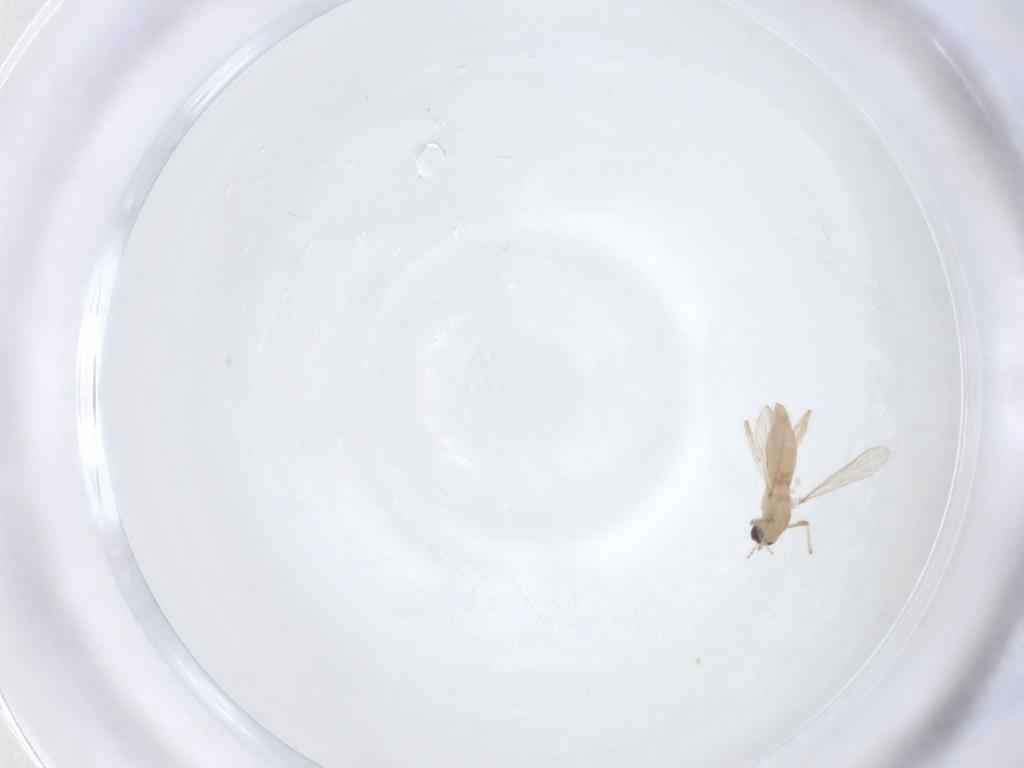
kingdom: Animalia
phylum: Arthropoda
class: Insecta
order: Diptera
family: Chironomidae
